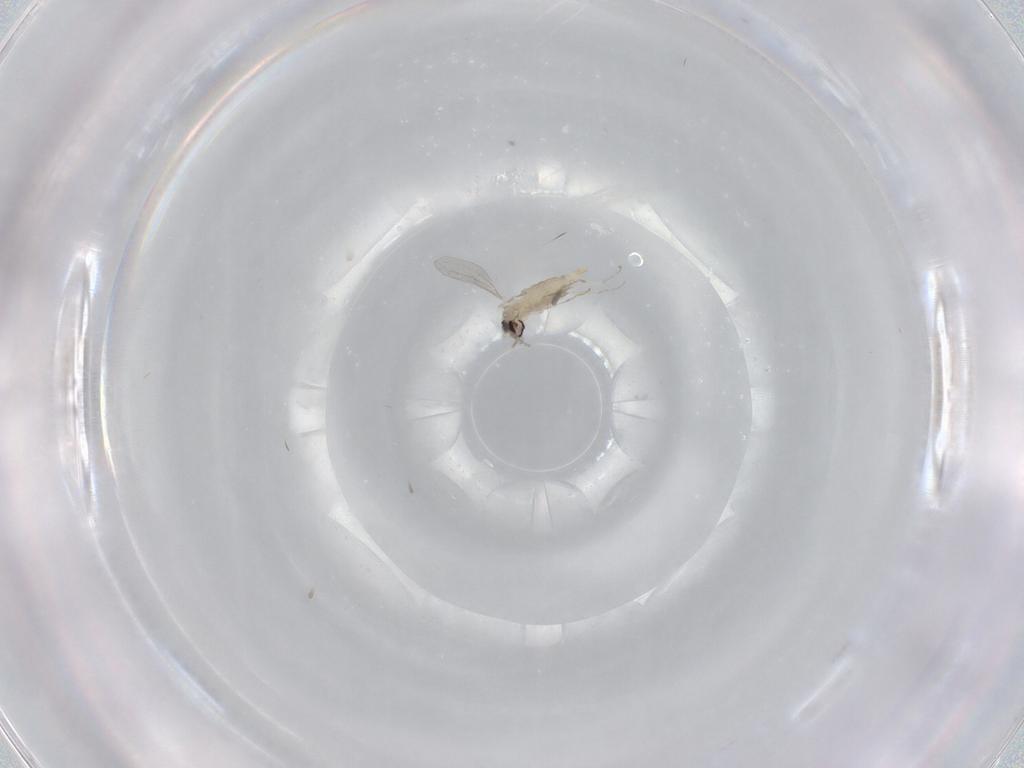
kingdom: Animalia
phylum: Arthropoda
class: Insecta
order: Diptera
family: Cecidomyiidae
